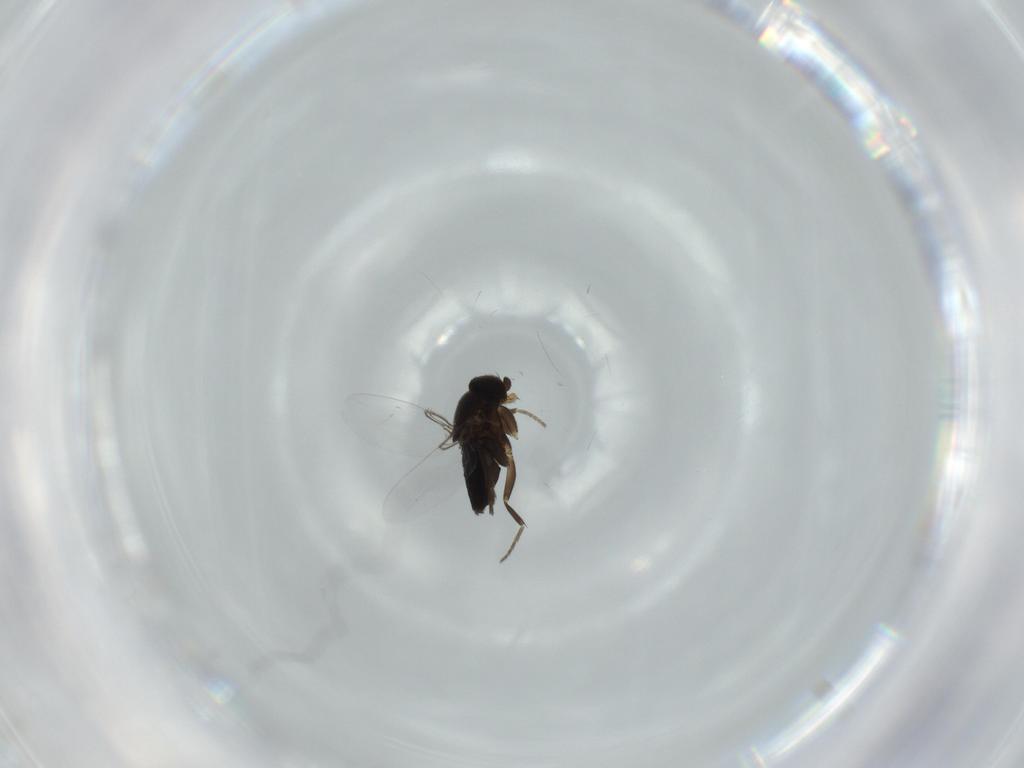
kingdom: Animalia
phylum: Arthropoda
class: Insecta
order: Diptera
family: Phoridae
